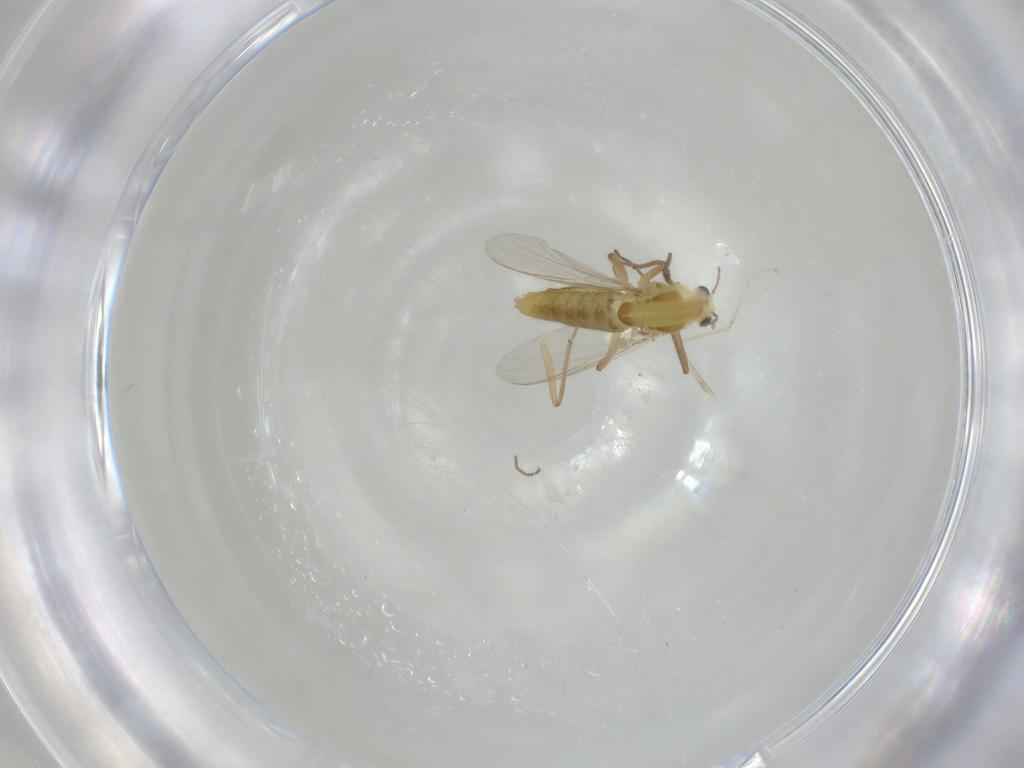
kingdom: Animalia
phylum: Arthropoda
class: Insecta
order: Diptera
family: Chironomidae
